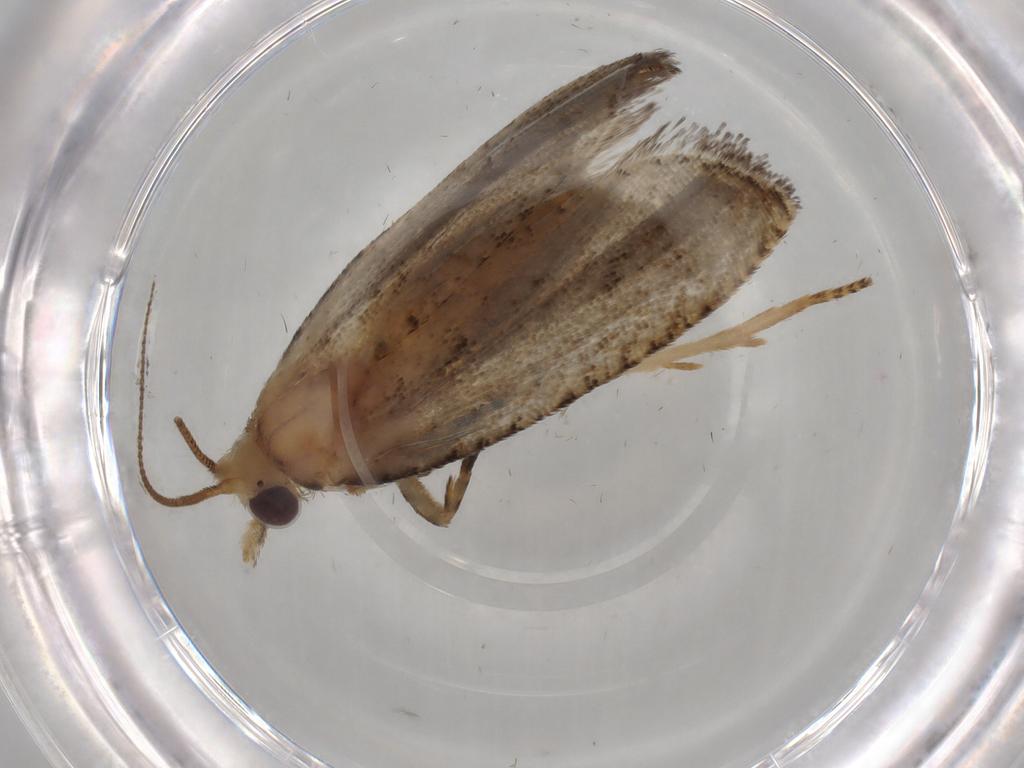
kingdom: Animalia
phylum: Arthropoda
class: Insecta
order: Lepidoptera
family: Tortricidae
